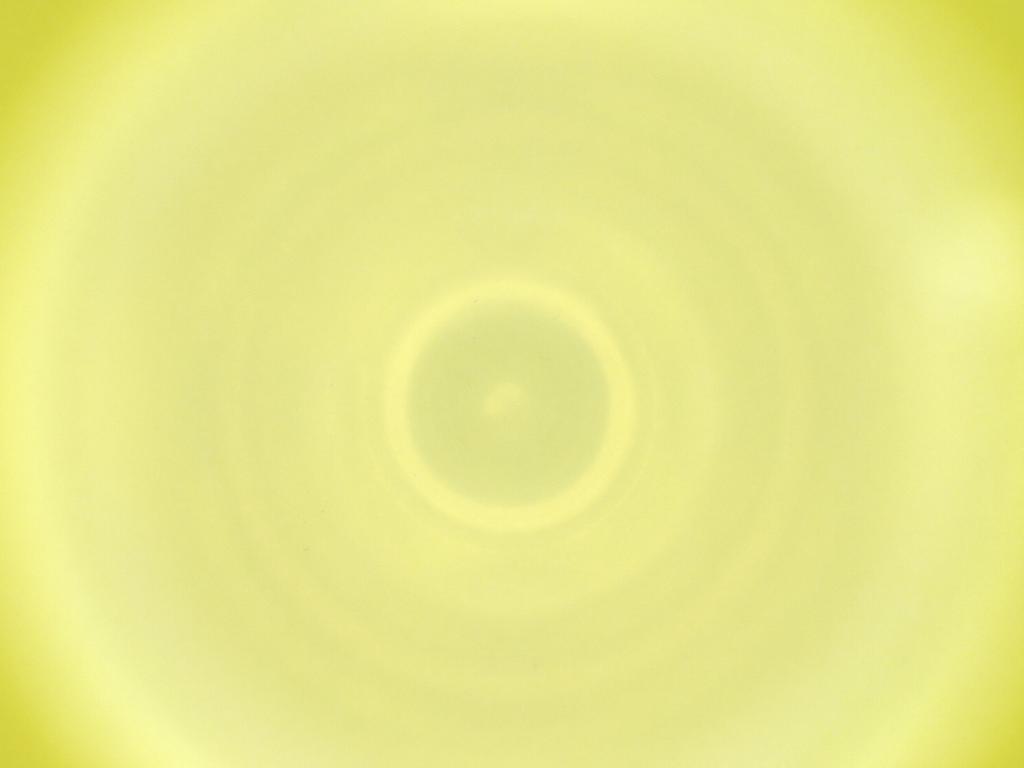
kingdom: Animalia
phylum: Arthropoda
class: Insecta
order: Diptera
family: Cecidomyiidae
